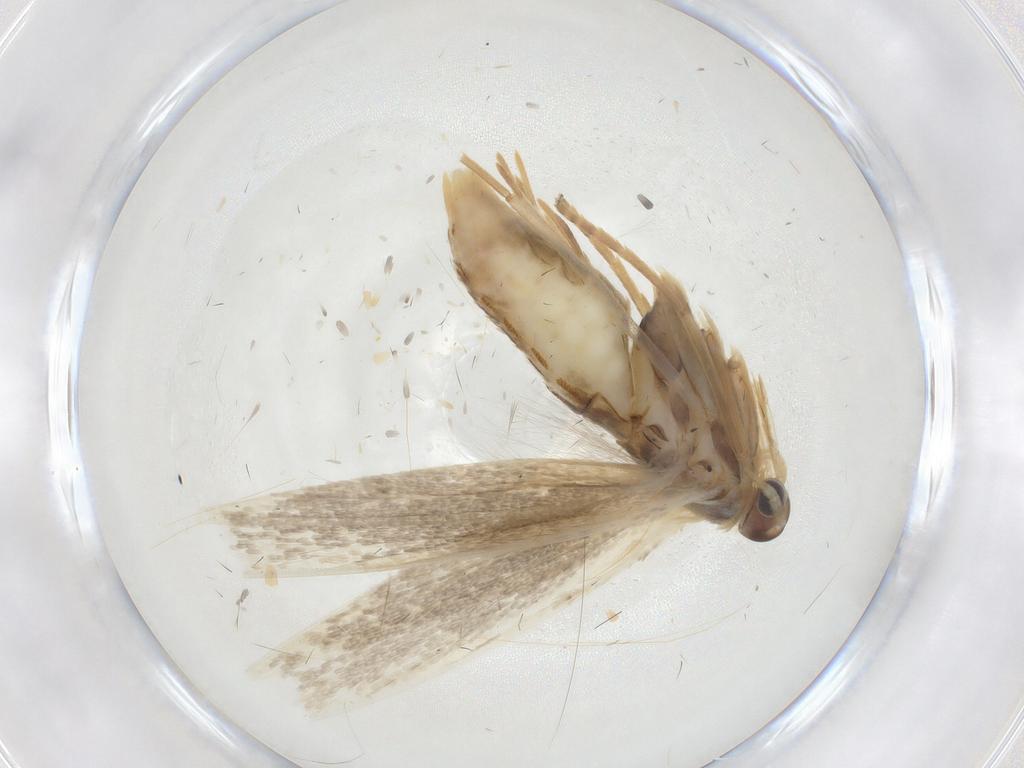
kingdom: Animalia
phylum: Arthropoda
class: Insecta
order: Lepidoptera
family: Coleophoridae
